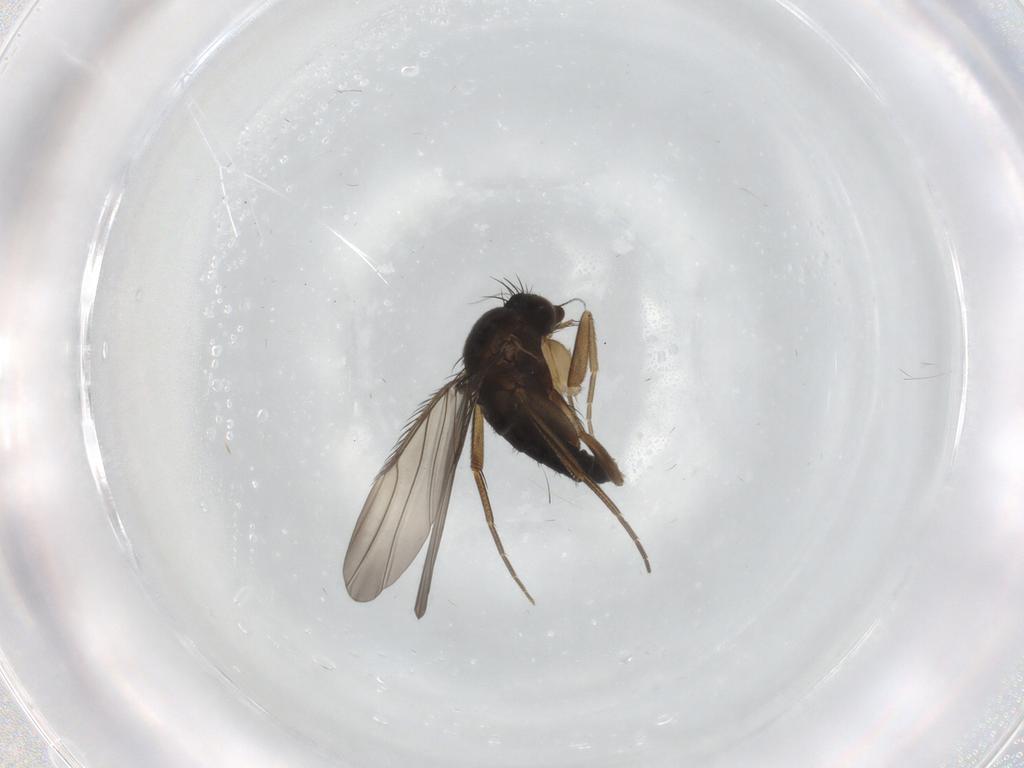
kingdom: Animalia
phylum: Arthropoda
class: Insecta
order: Diptera
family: Phoridae
